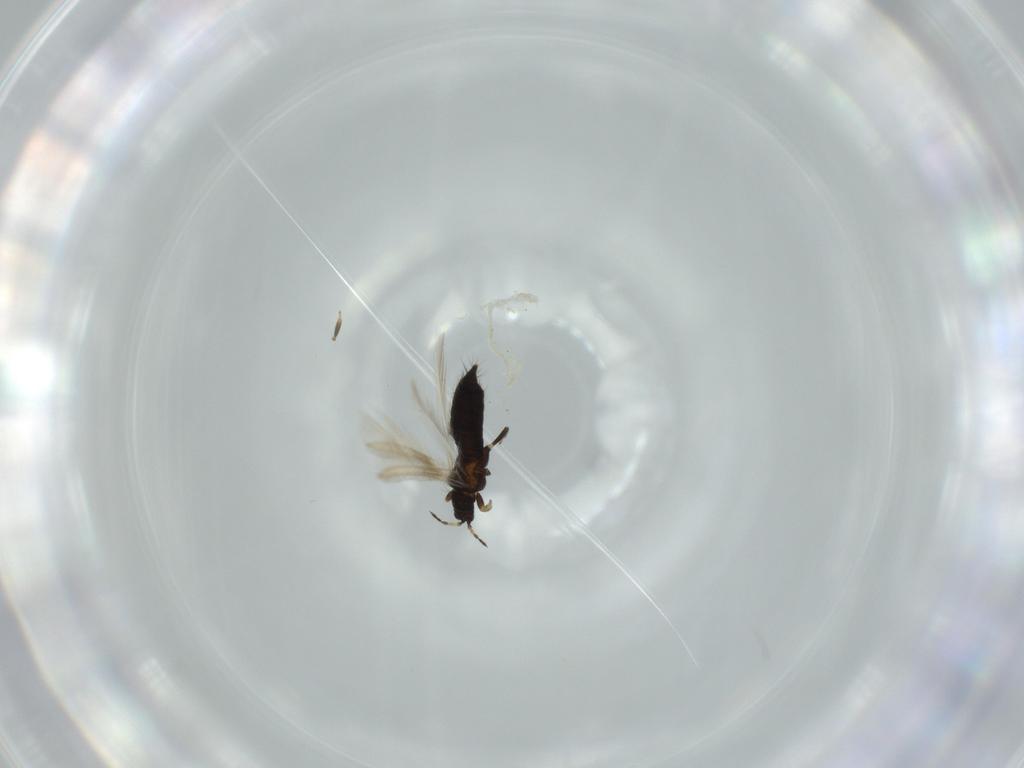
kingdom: Animalia
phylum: Arthropoda
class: Insecta
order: Thysanoptera
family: Thripidae
